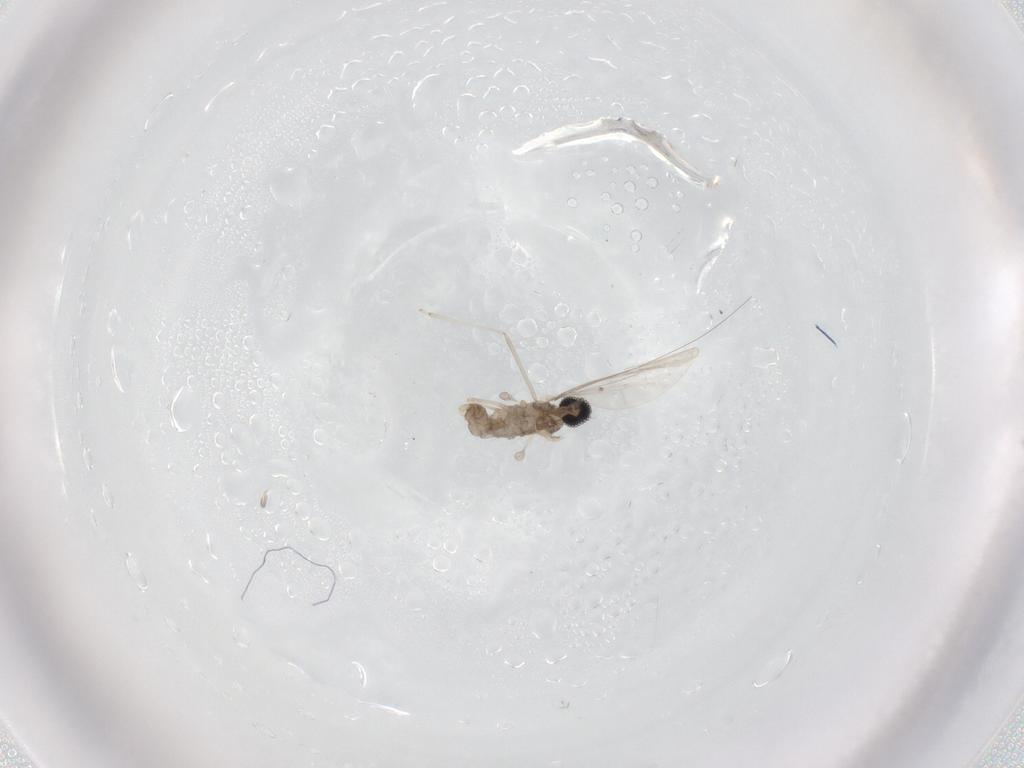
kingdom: Animalia
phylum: Arthropoda
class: Insecta
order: Diptera
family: Cecidomyiidae
